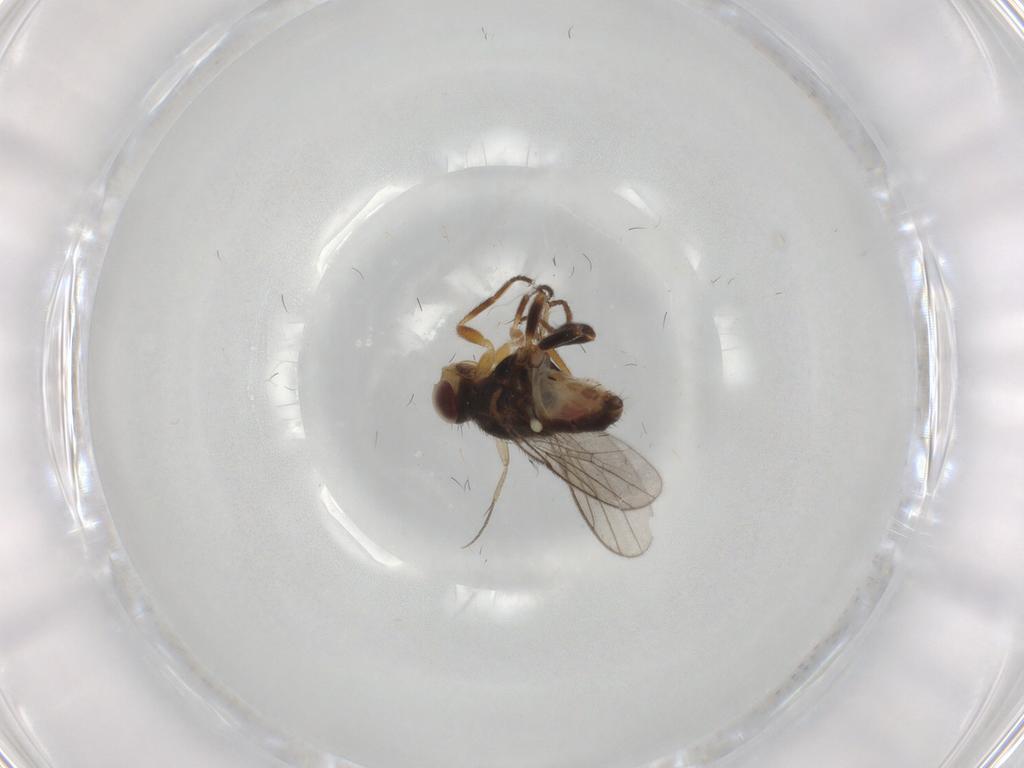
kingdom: Animalia
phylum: Arthropoda
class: Insecta
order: Diptera
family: Chloropidae
